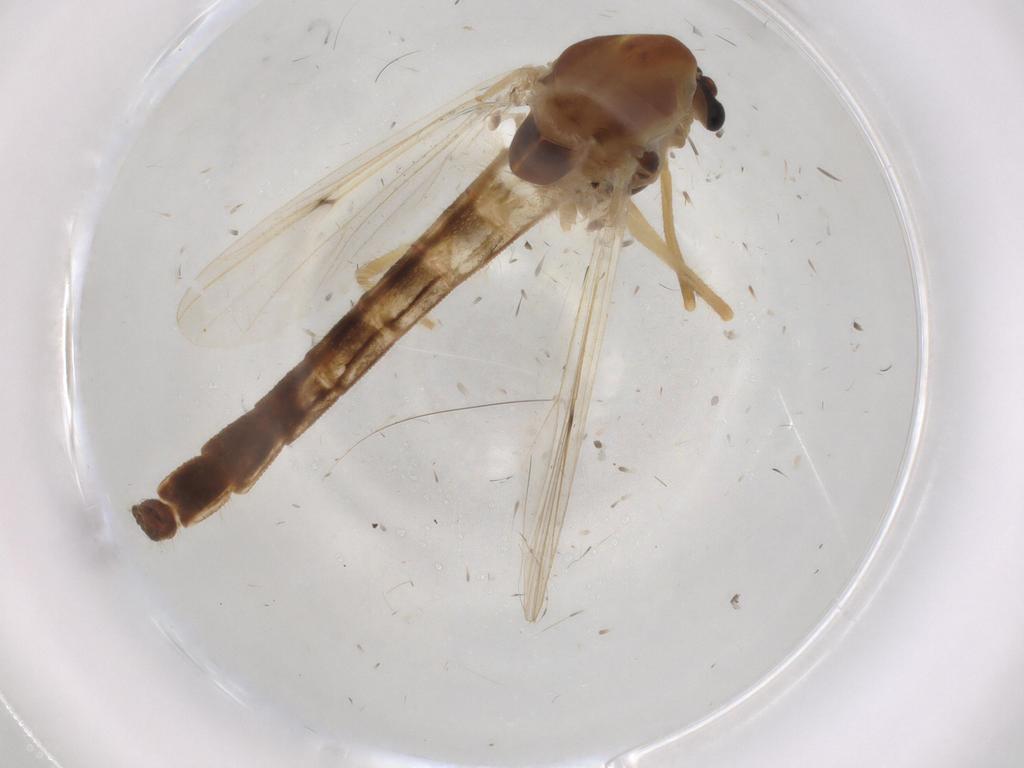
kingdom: Animalia
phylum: Arthropoda
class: Insecta
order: Diptera
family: Chironomidae
